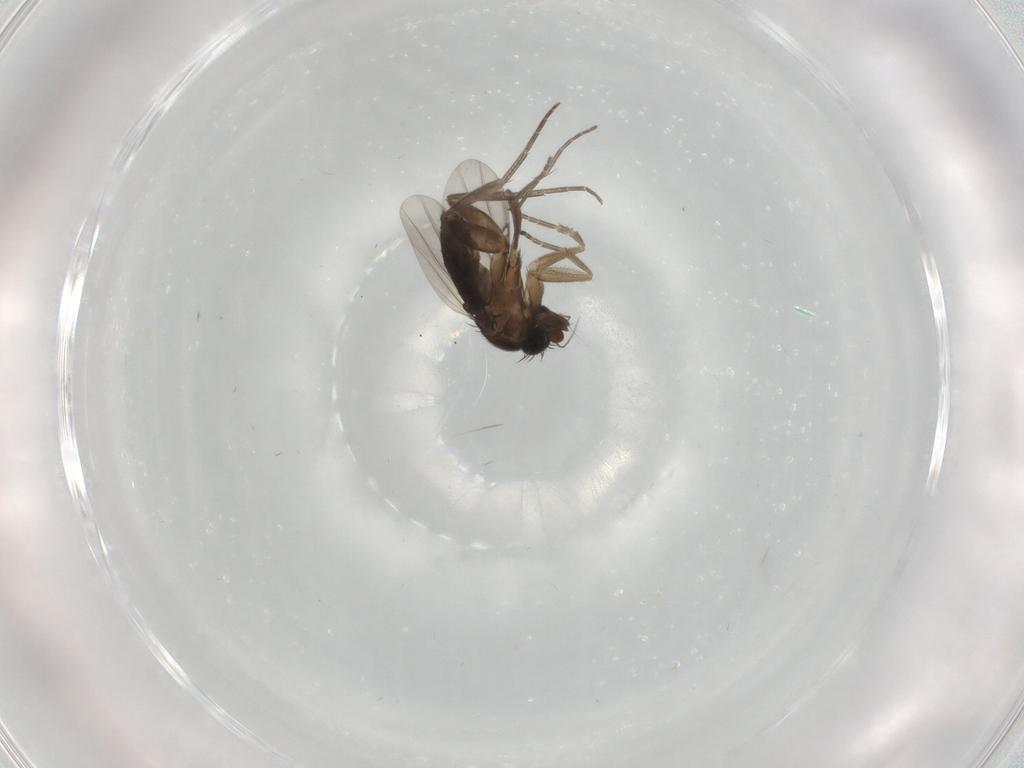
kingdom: Animalia
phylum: Arthropoda
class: Insecta
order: Diptera
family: Phoridae
